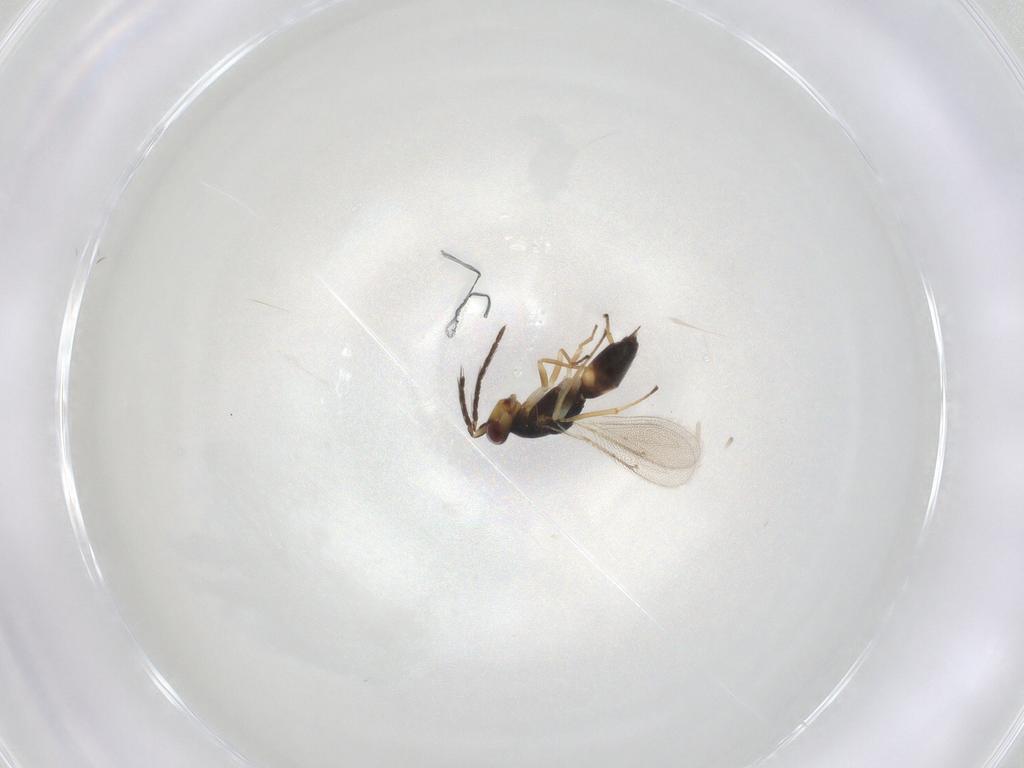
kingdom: Animalia
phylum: Arthropoda
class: Insecta
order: Hymenoptera
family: Eulophidae
